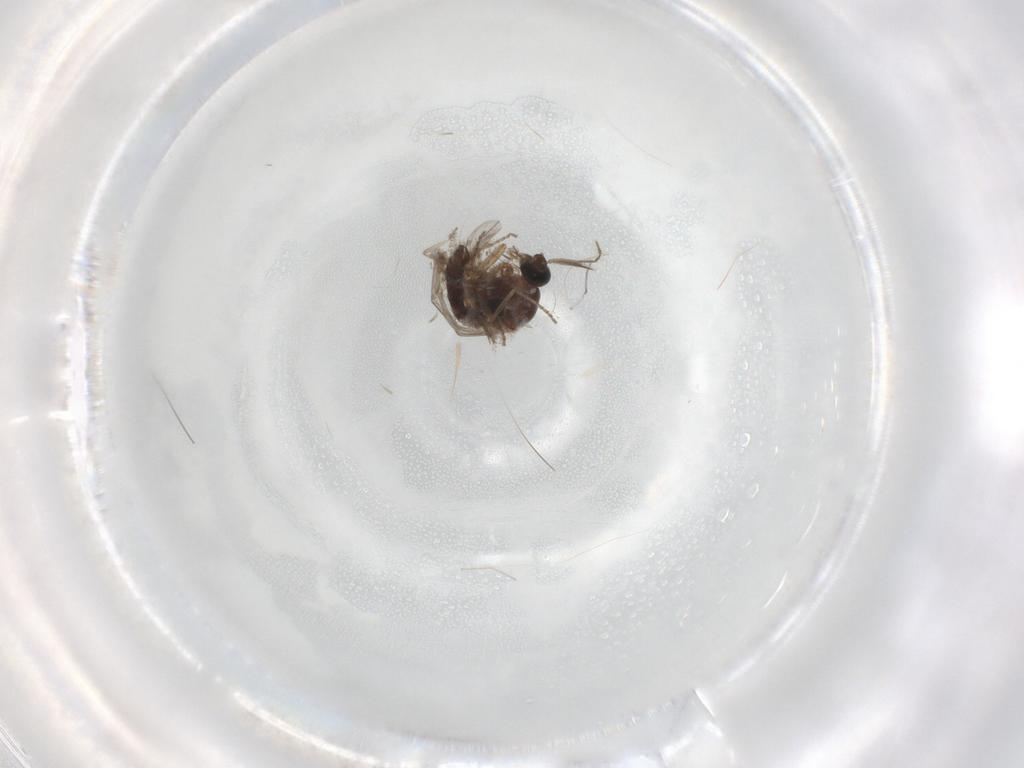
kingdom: Animalia
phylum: Arthropoda
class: Insecta
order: Diptera
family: Ceratopogonidae
